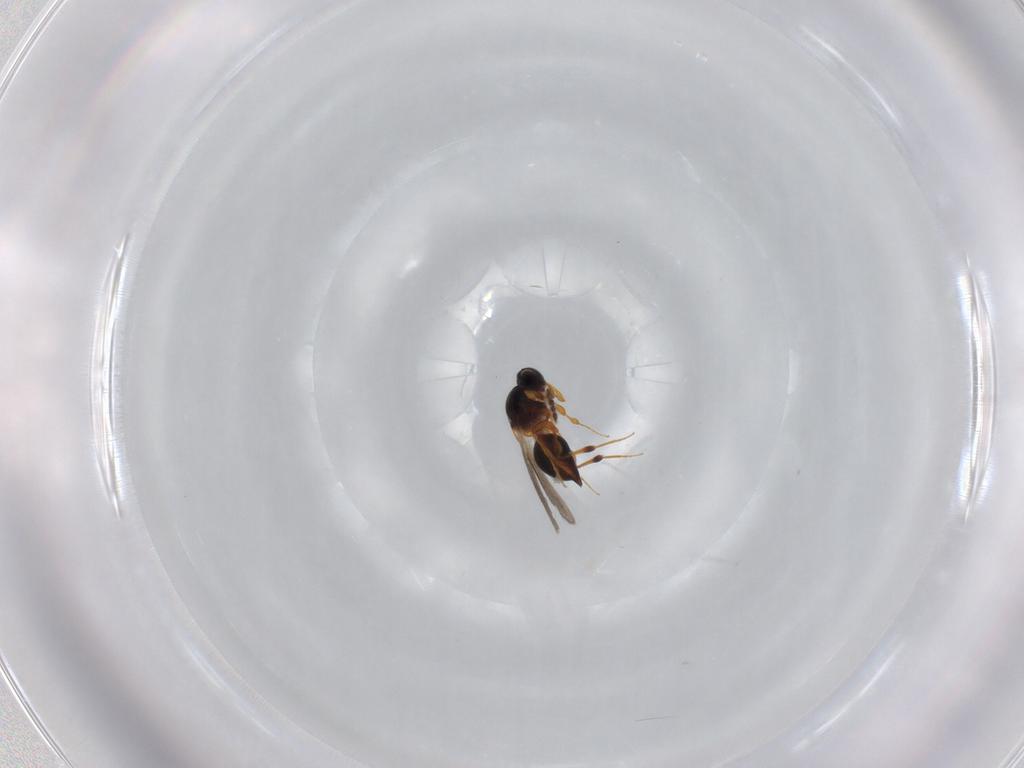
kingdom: Animalia
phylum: Arthropoda
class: Insecta
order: Hymenoptera
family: Platygastridae
